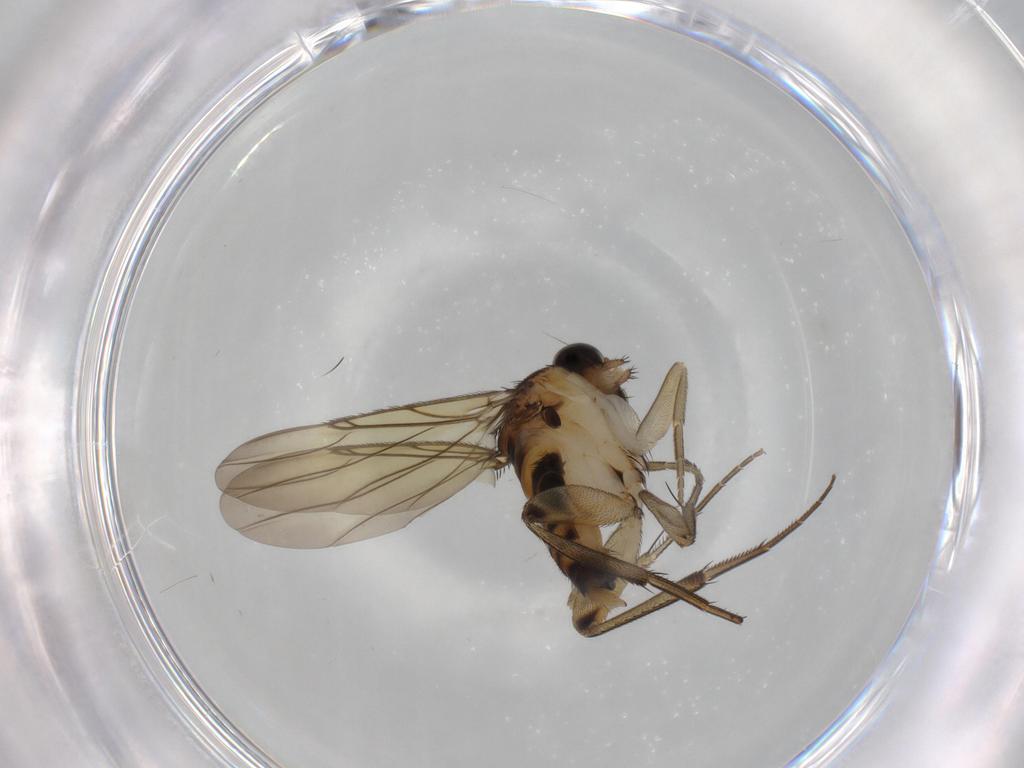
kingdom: Animalia
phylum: Arthropoda
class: Insecta
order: Diptera
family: Phoridae
